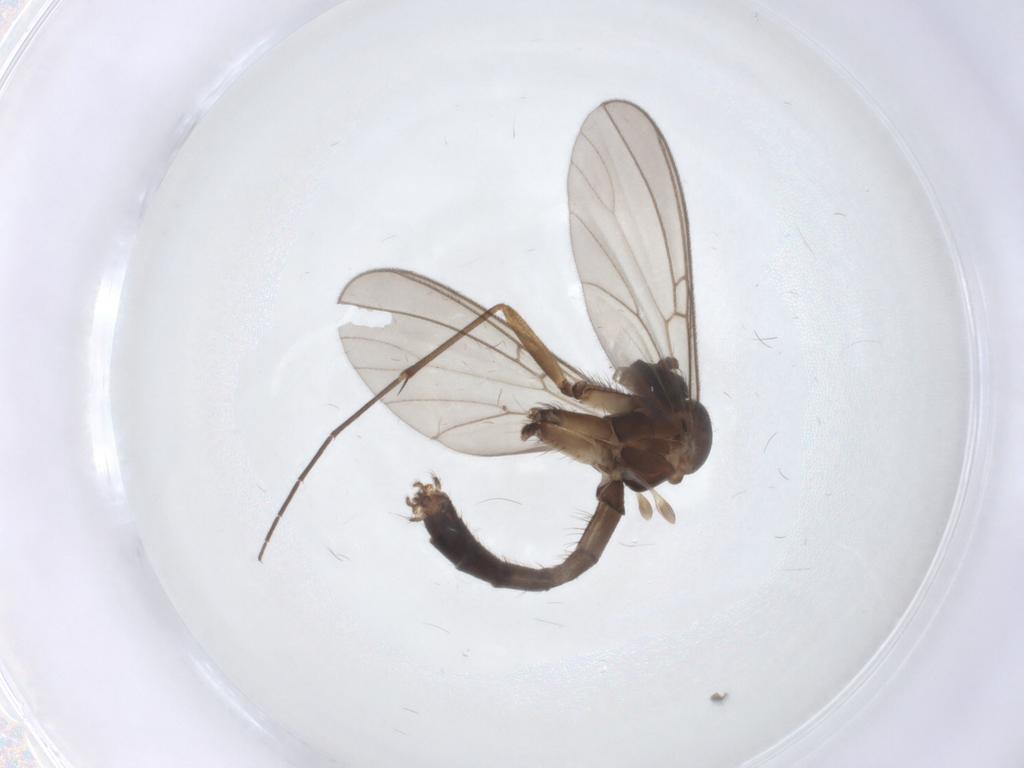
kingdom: Animalia
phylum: Arthropoda
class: Insecta
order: Diptera
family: Mycetophilidae
